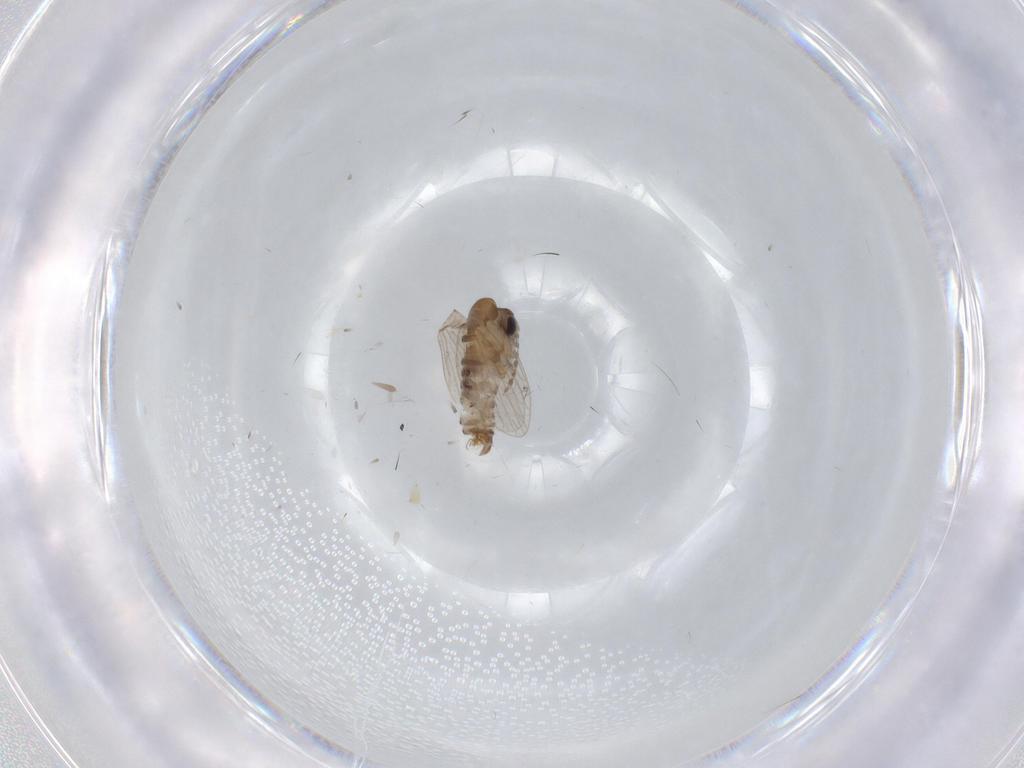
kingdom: Animalia
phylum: Arthropoda
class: Insecta
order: Diptera
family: Psychodidae
